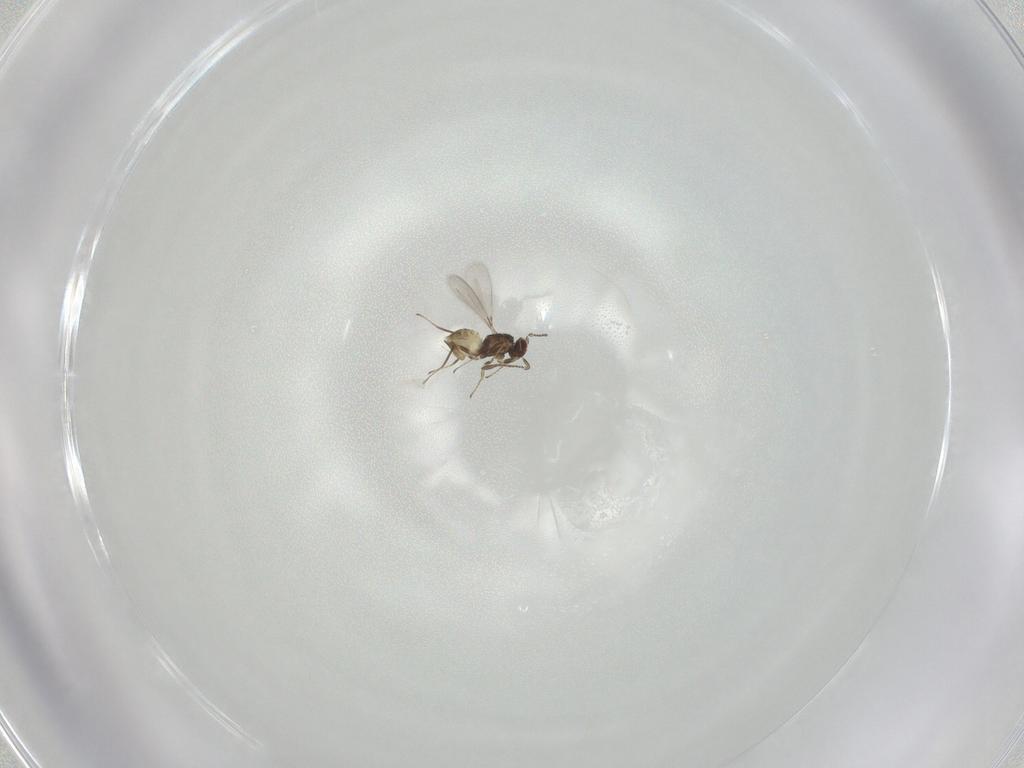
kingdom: Animalia
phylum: Arthropoda
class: Insecta
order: Hymenoptera
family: Mymaridae
